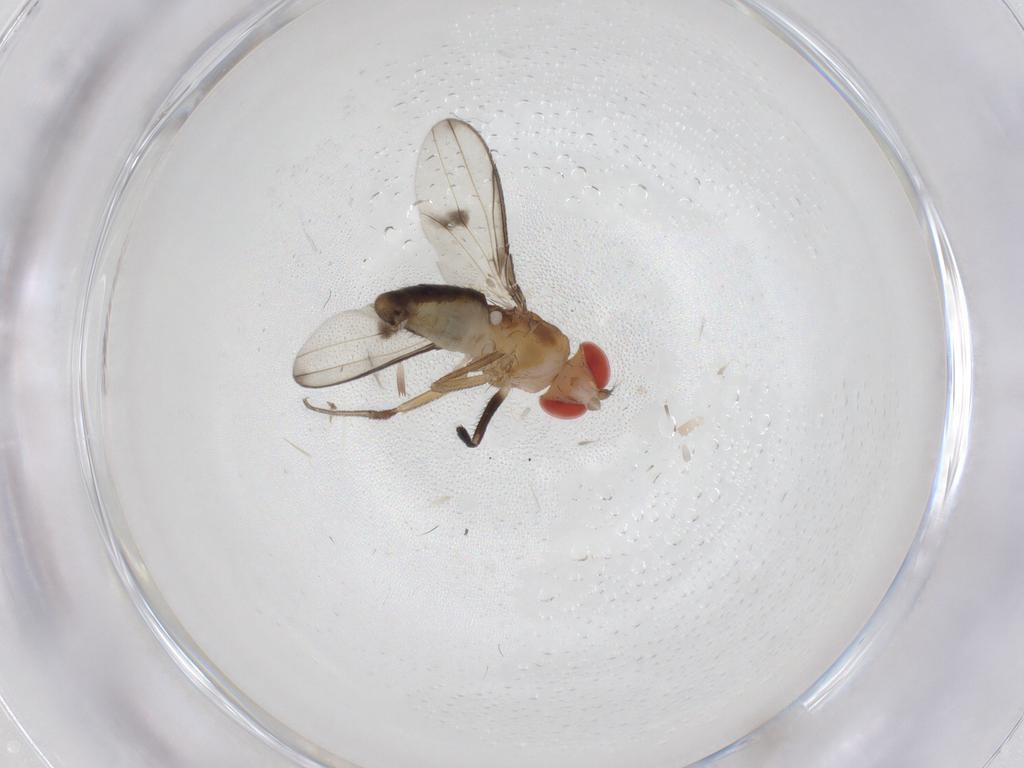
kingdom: Animalia
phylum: Arthropoda
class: Insecta
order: Diptera
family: Drosophilidae
